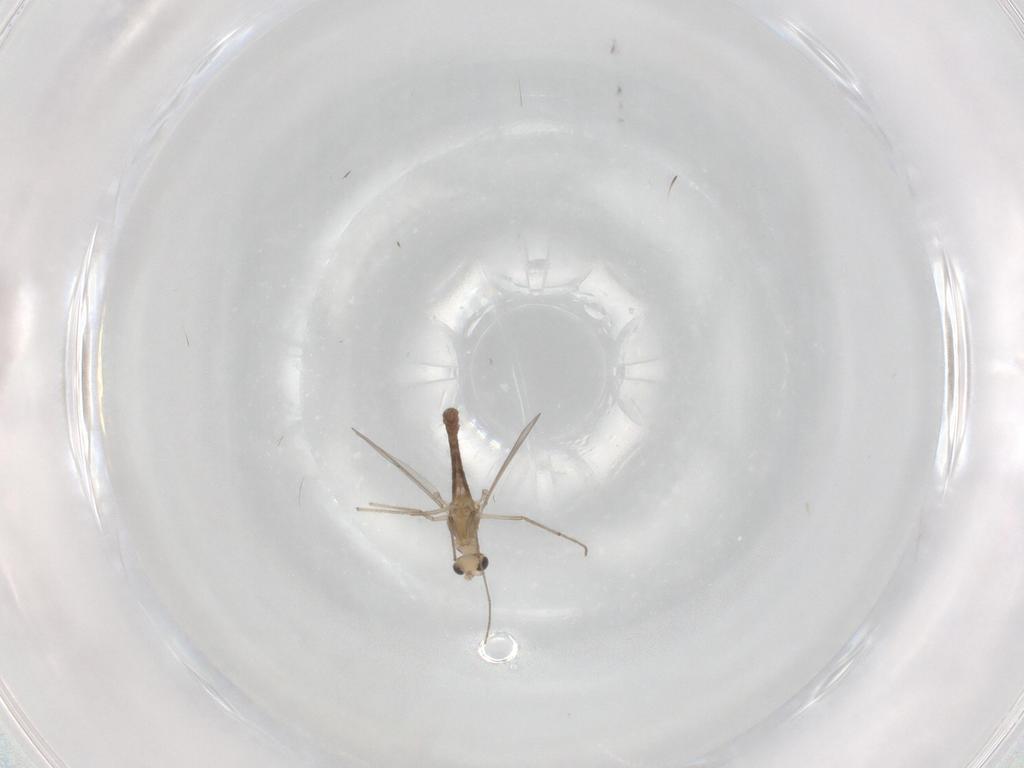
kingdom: Animalia
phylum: Arthropoda
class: Insecta
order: Diptera
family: Chironomidae
